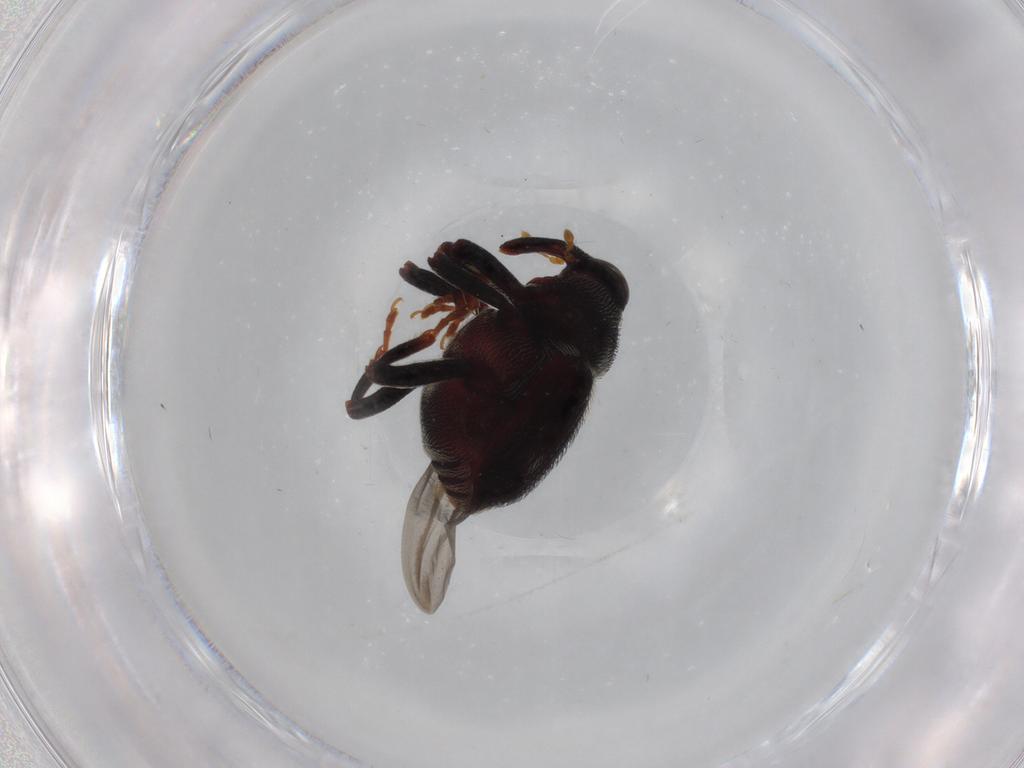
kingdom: Animalia
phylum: Arthropoda
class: Insecta
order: Coleoptera
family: Curculionidae
